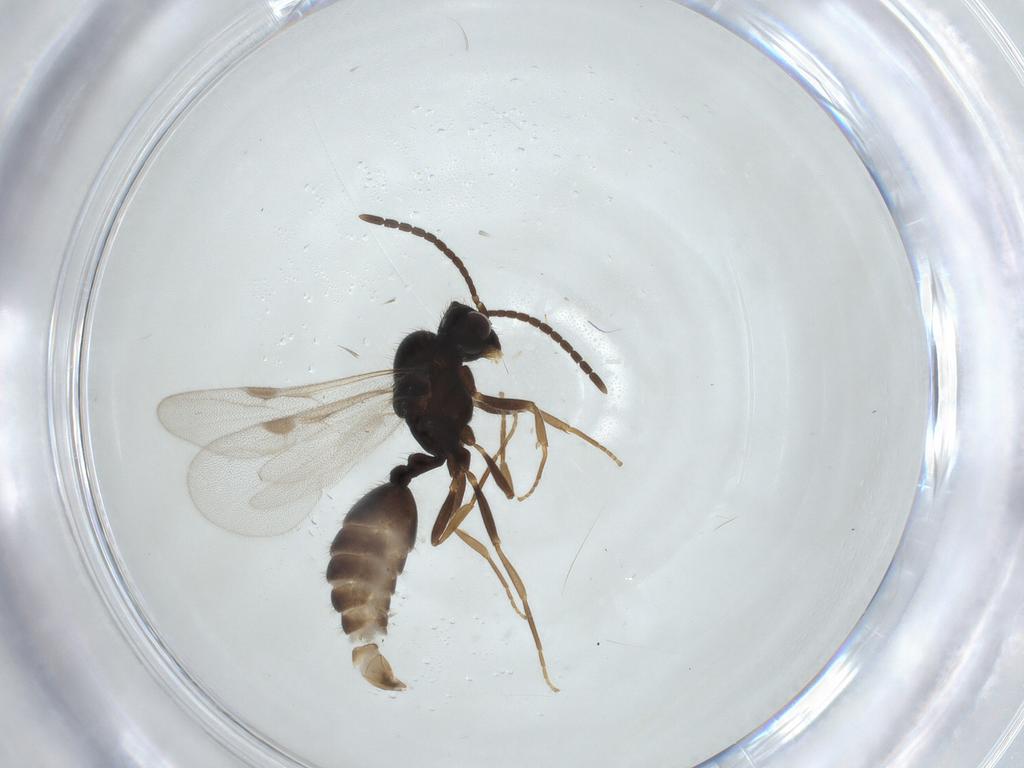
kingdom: Animalia
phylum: Arthropoda
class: Insecta
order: Hymenoptera
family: Formicidae
